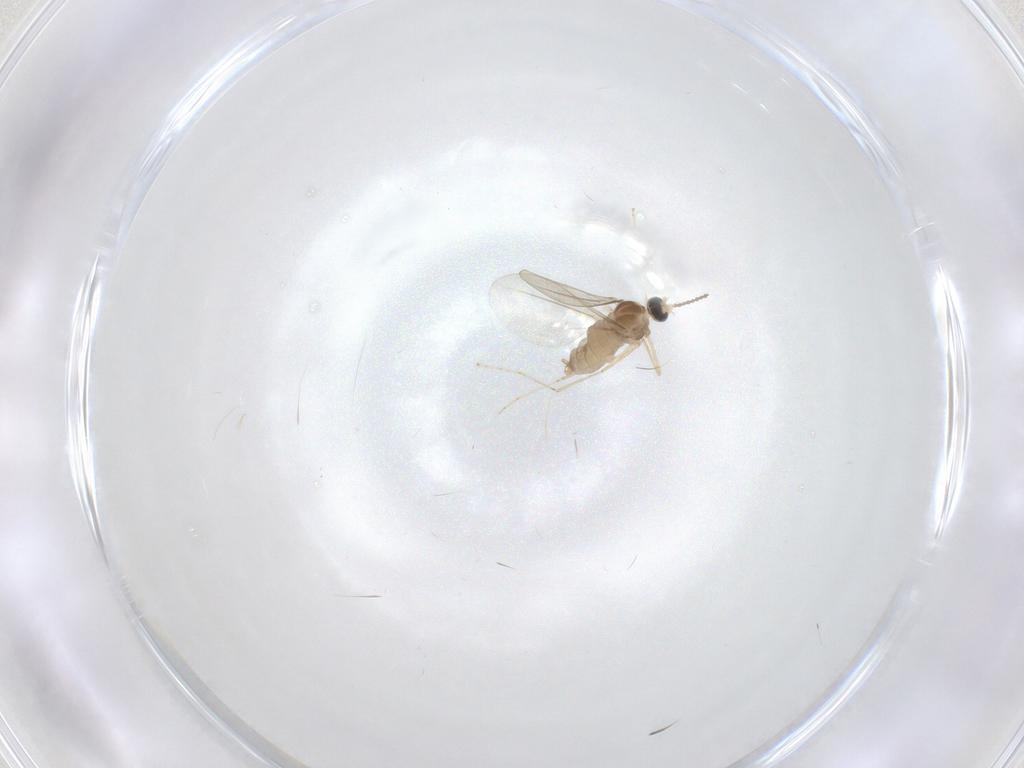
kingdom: Animalia
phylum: Arthropoda
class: Insecta
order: Diptera
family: Cecidomyiidae
